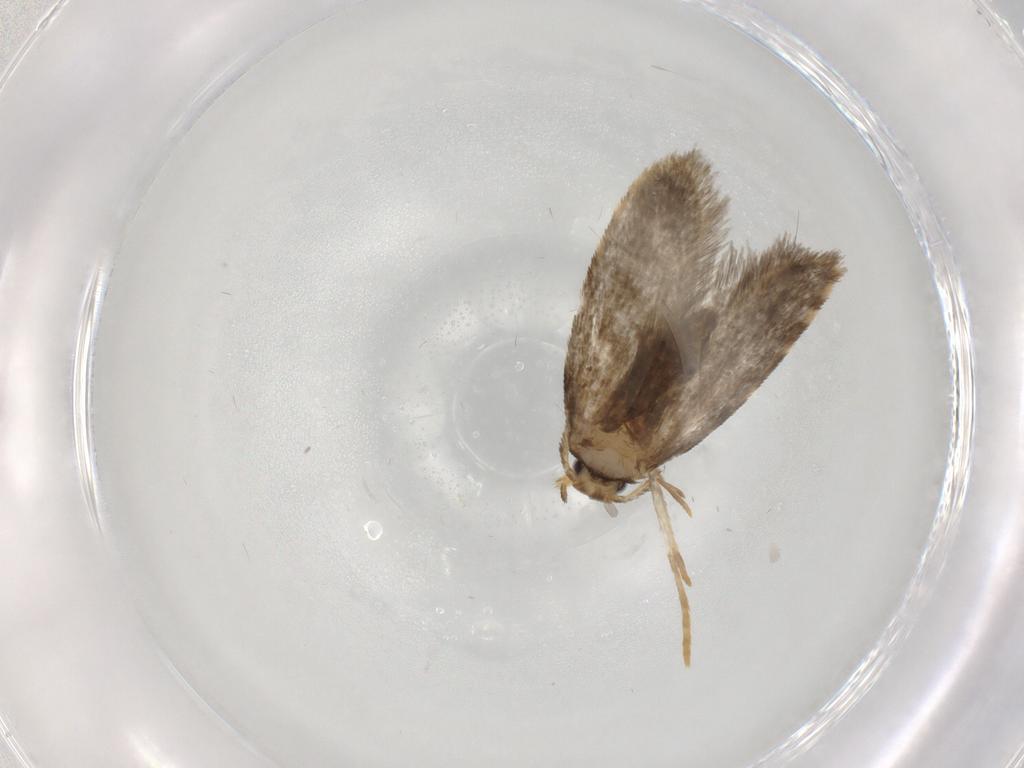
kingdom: Animalia
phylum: Arthropoda
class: Insecta
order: Lepidoptera
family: Psychidae
